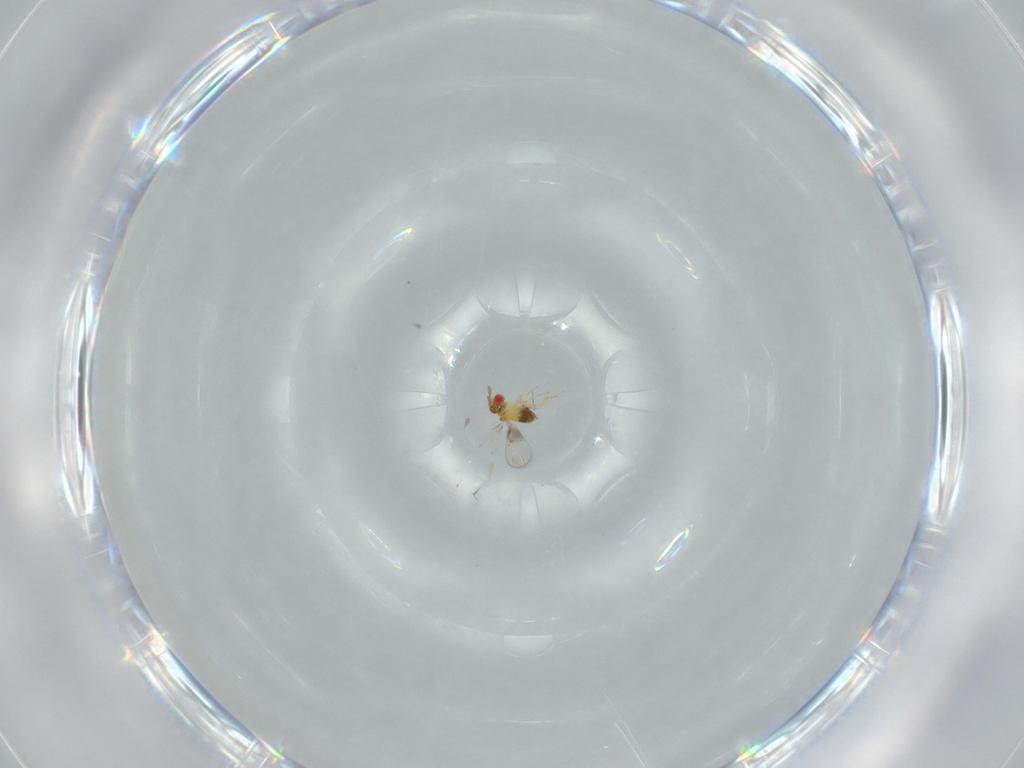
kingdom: Animalia
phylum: Arthropoda
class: Insecta
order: Hymenoptera
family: Trichogrammatidae
